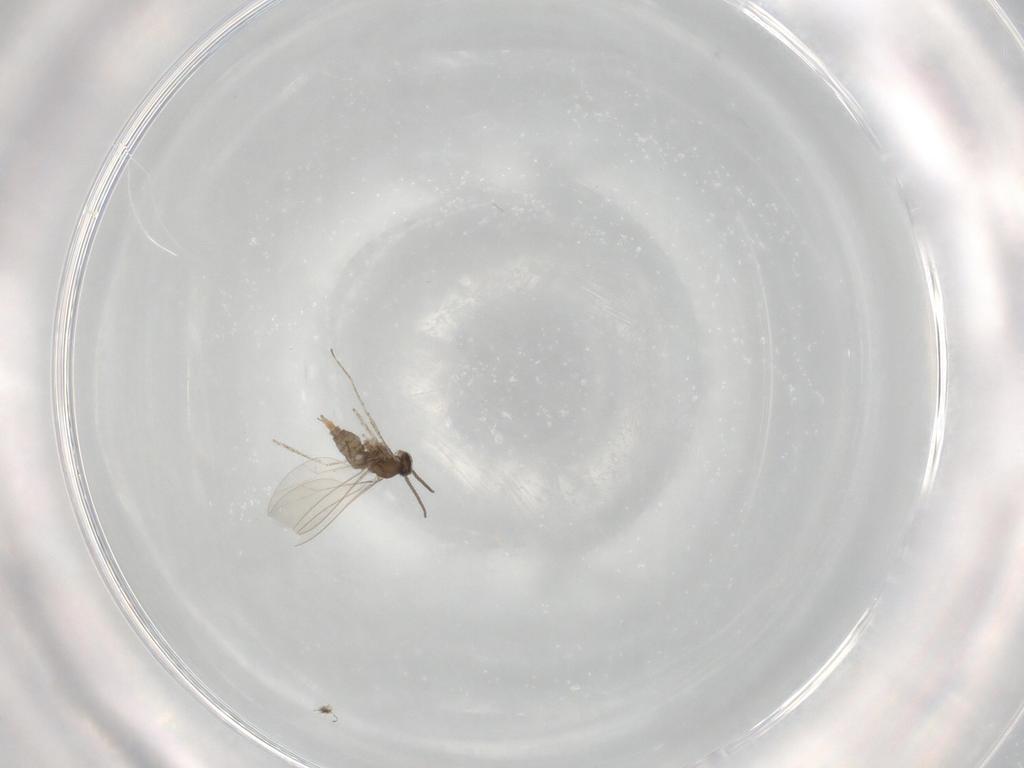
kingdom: Animalia
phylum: Arthropoda
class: Insecta
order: Diptera
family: Cecidomyiidae
